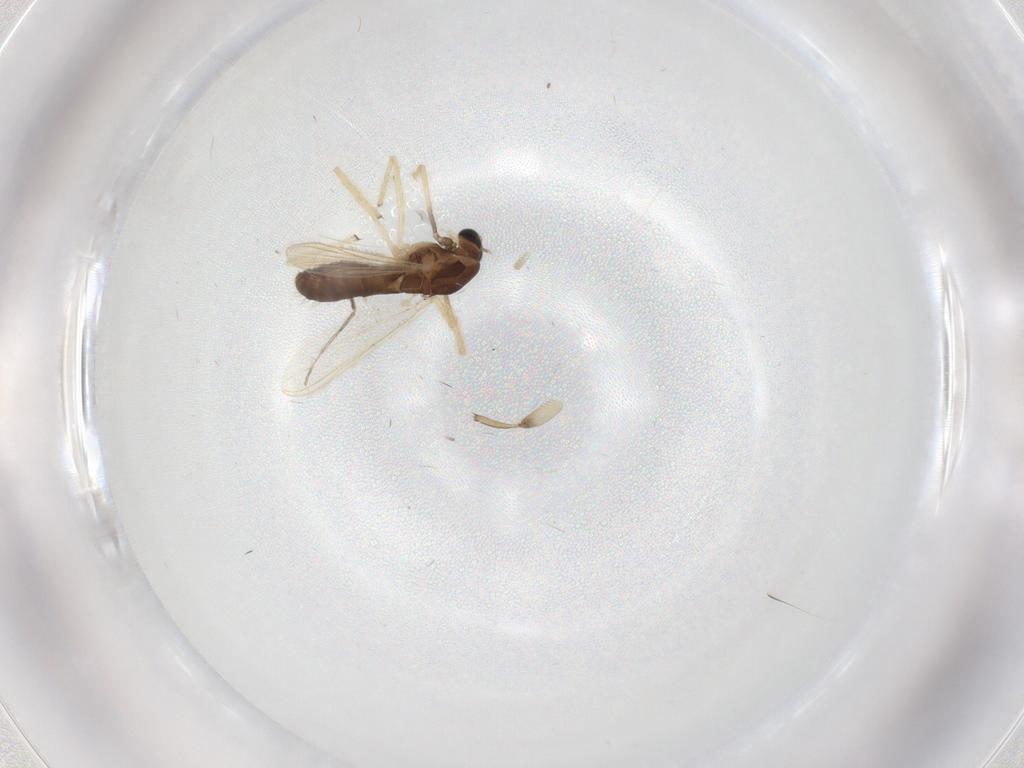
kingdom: Animalia
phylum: Arthropoda
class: Insecta
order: Diptera
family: Chironomidae
